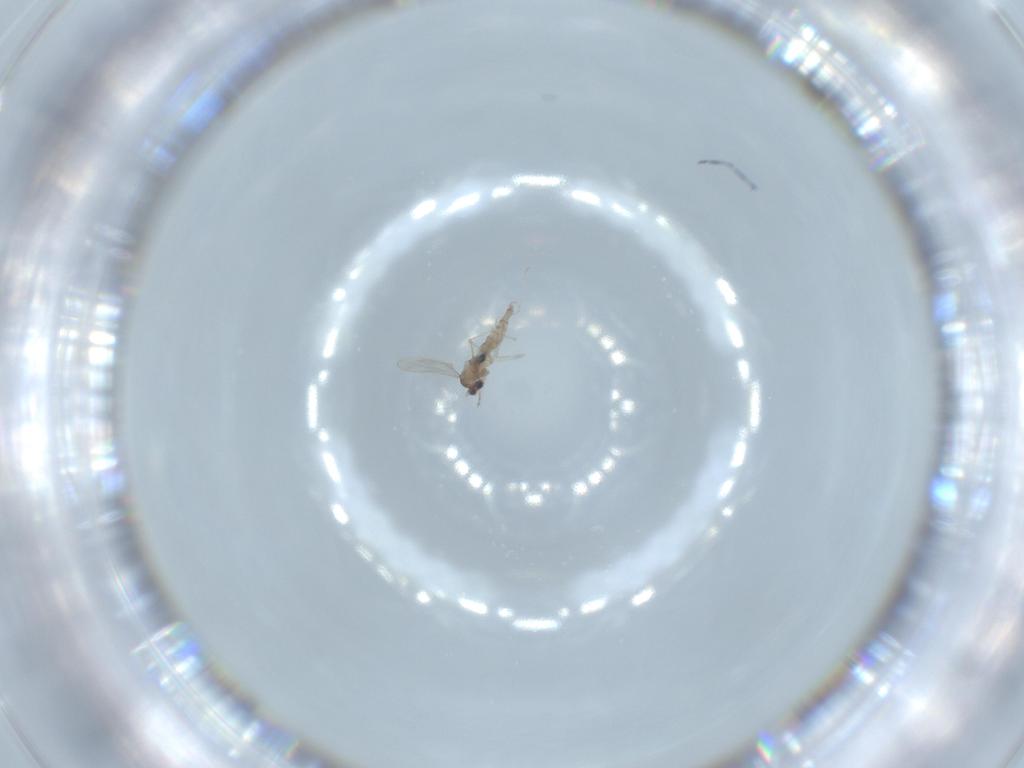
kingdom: Animalia
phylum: Arthropoda
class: Insecta
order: Diptera
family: Cecidomyiidae
